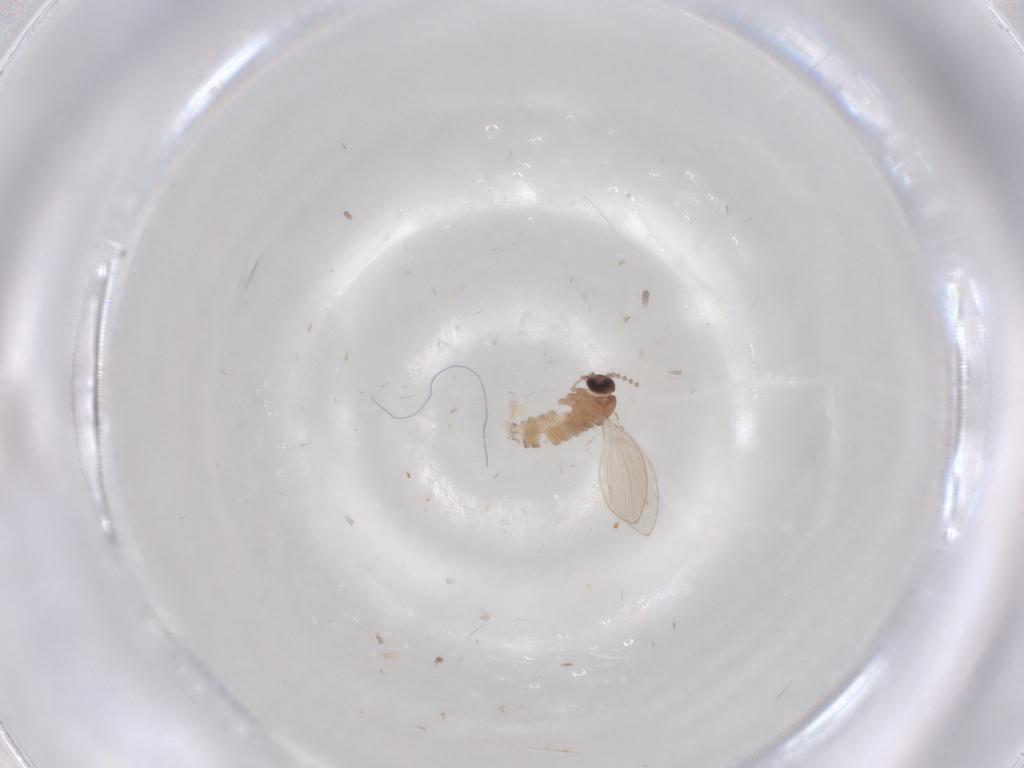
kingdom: Animalia
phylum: Arthropoda
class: Insecta
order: Diptera
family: Psychodidae
